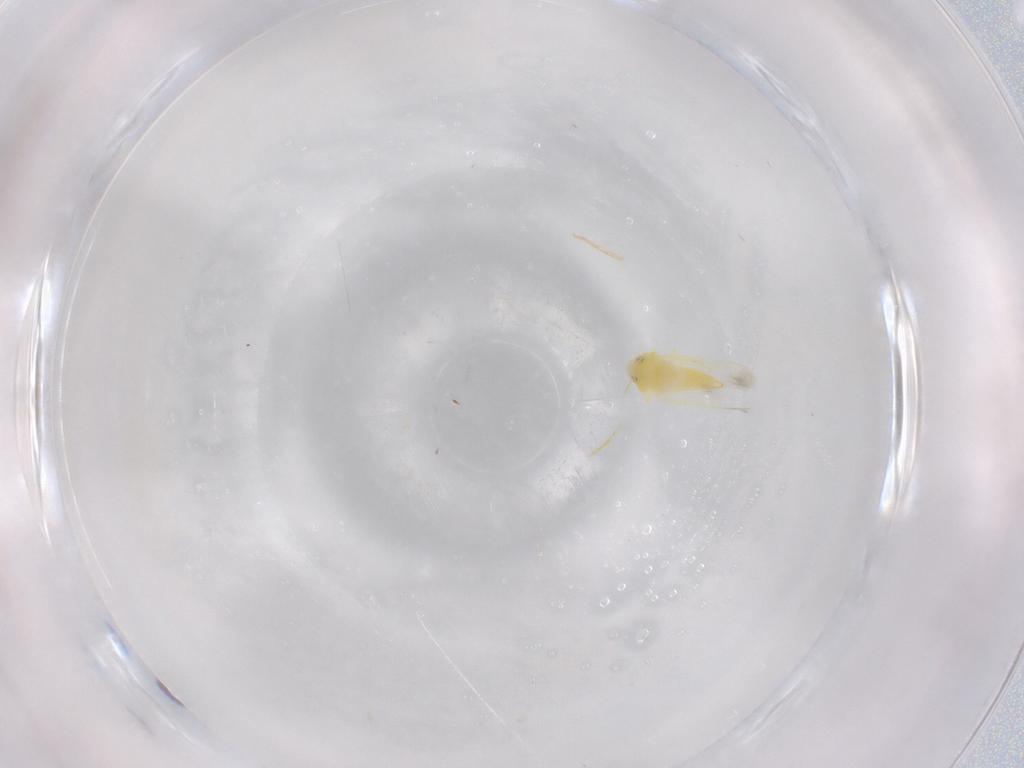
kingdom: Animalia
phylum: Arthropoda
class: Insecta
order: Hemiptera
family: Aleyrodidae
